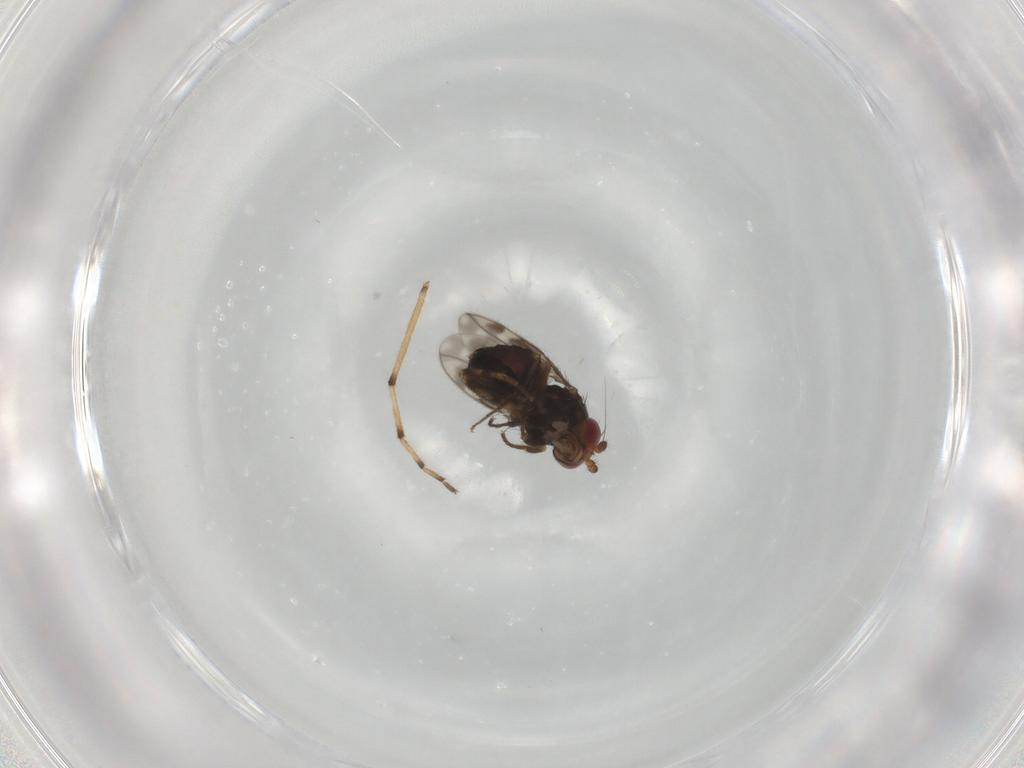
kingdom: Animalia
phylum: Arthropoda
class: Insecta
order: Diptera
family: Sphaeroceridae
